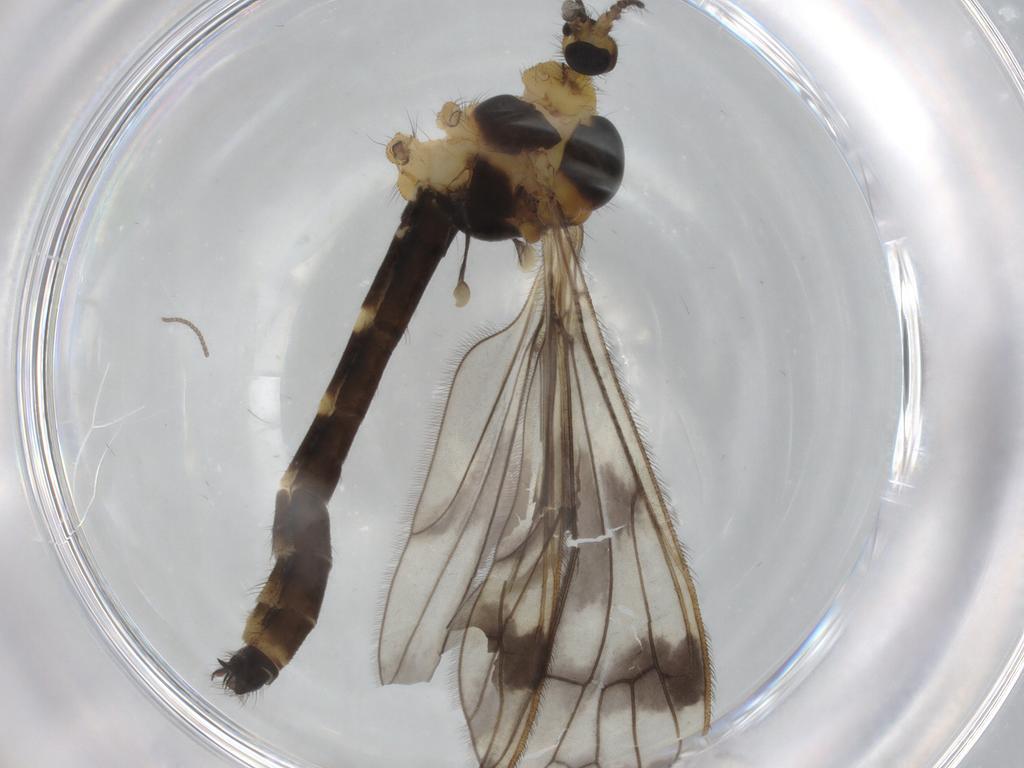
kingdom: Animalia
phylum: Arthropoda
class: Insecta
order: Diptera
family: Limoniidae
